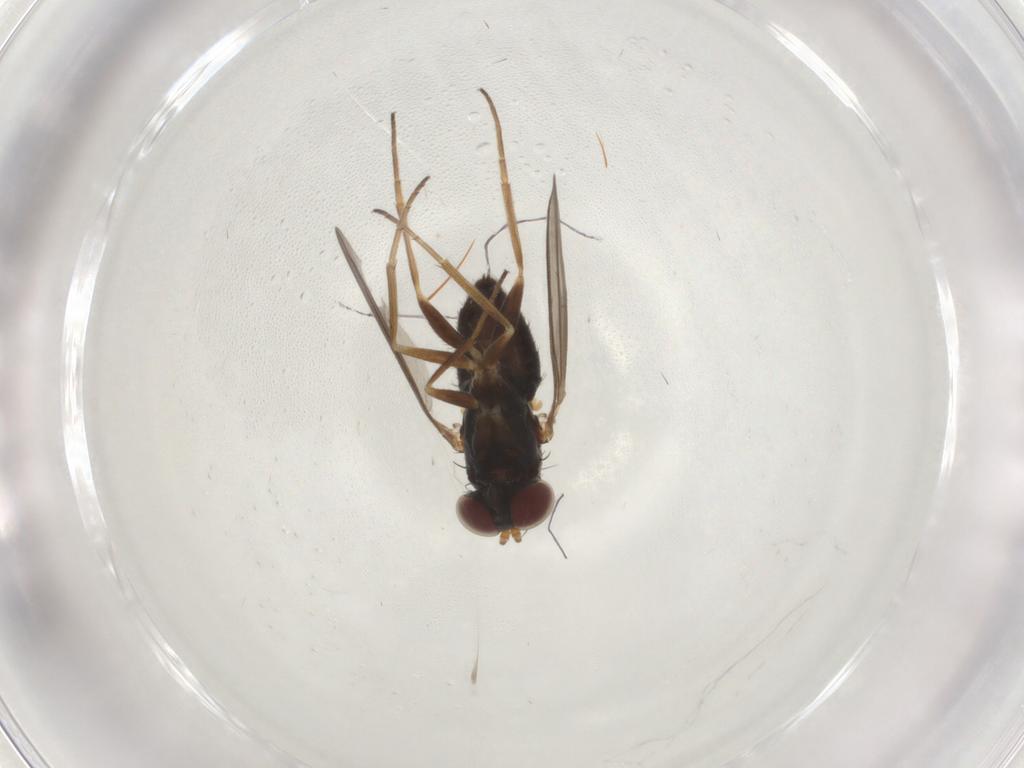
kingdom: Animalia
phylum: Arthropoda
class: Insecta
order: Diptera
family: Dolichopodidae
